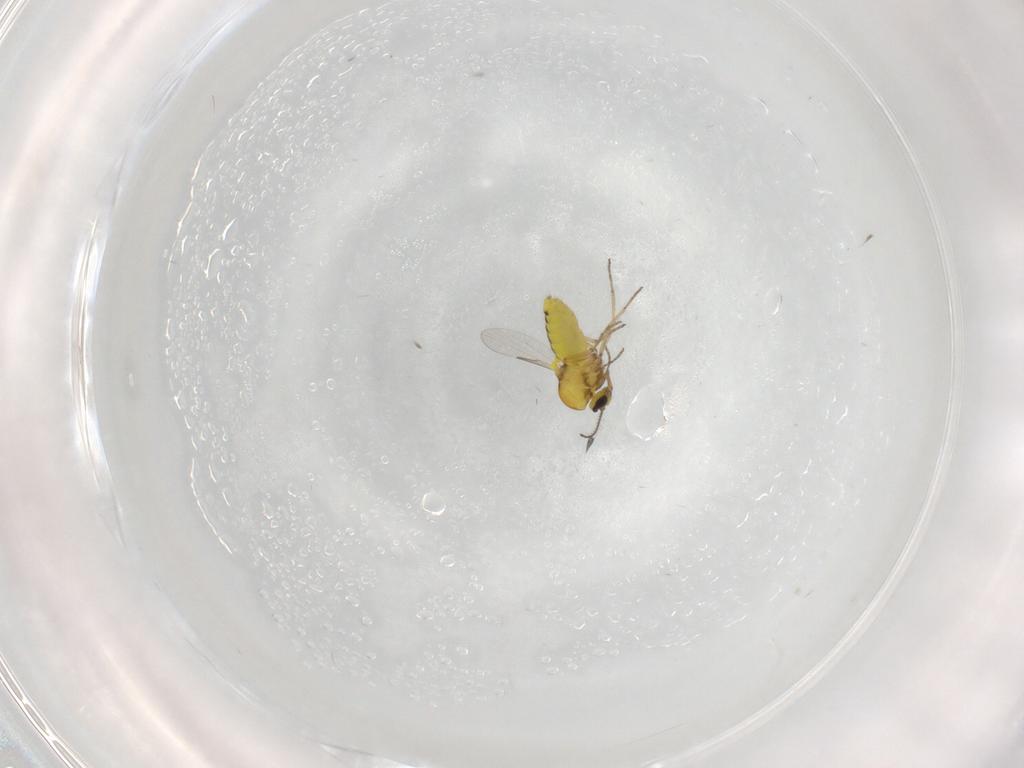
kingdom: Animalia
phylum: Arthropoda
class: Insecta
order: Diptera
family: Ceratopogonidae
